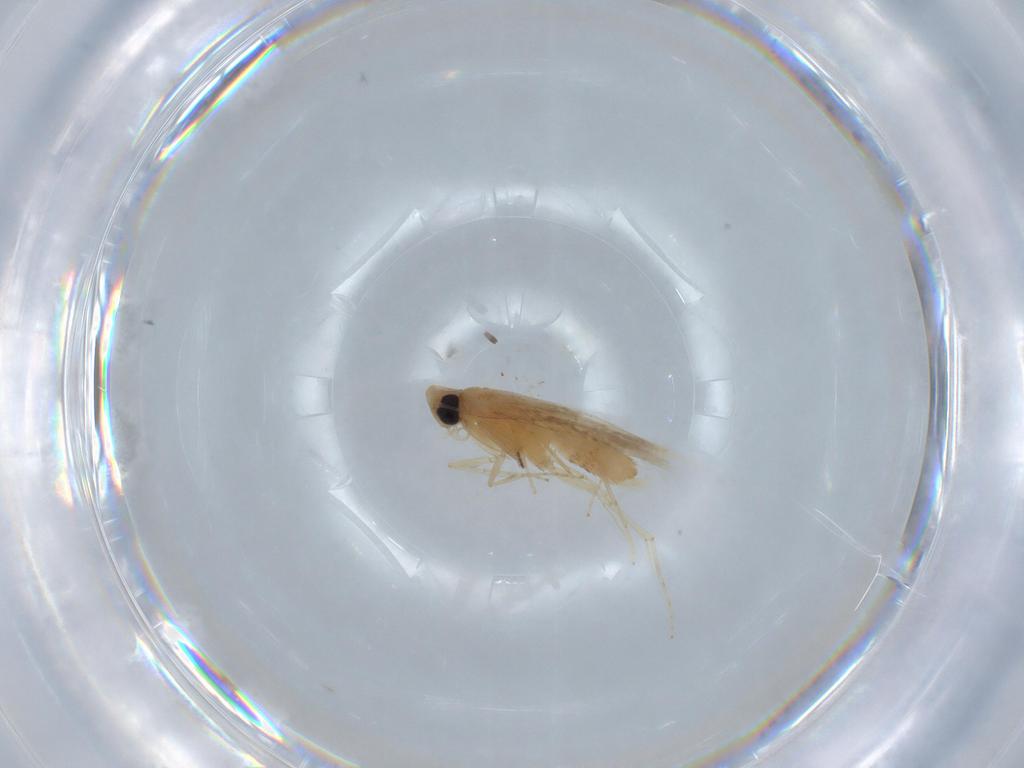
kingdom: Animalia
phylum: Arthropoda
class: Insecta
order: Lepidoptera
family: Tischeriidae
